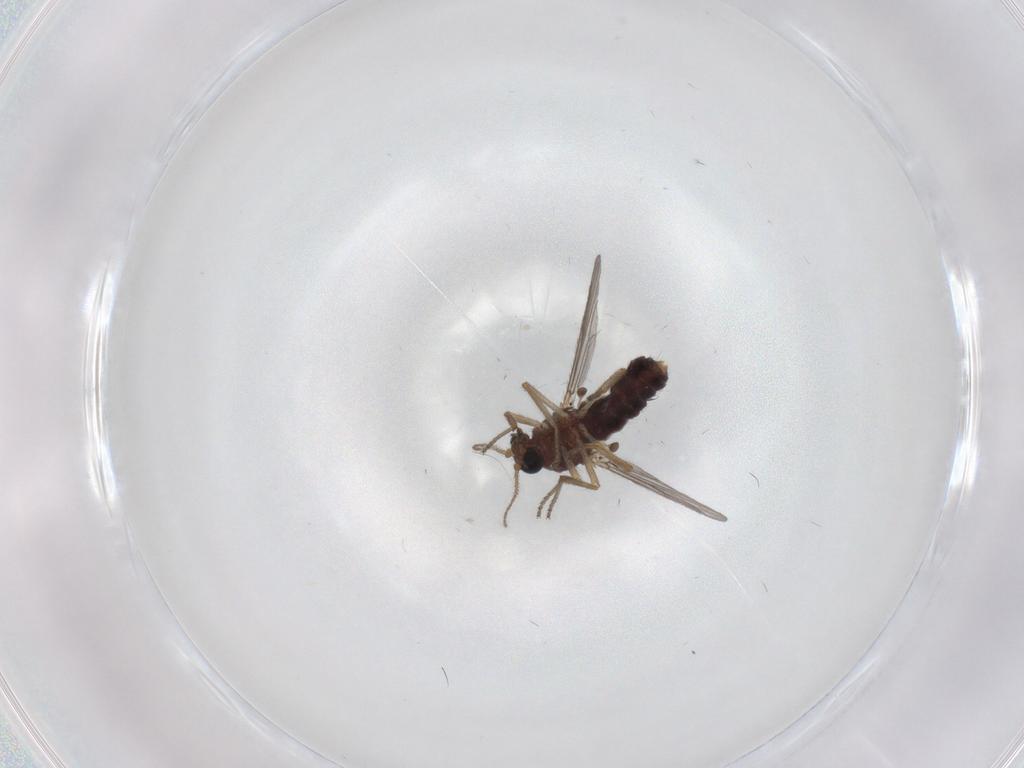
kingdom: Animalia
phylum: Arthropoda
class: Insecta
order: Diptera
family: Ceratopogonidae
